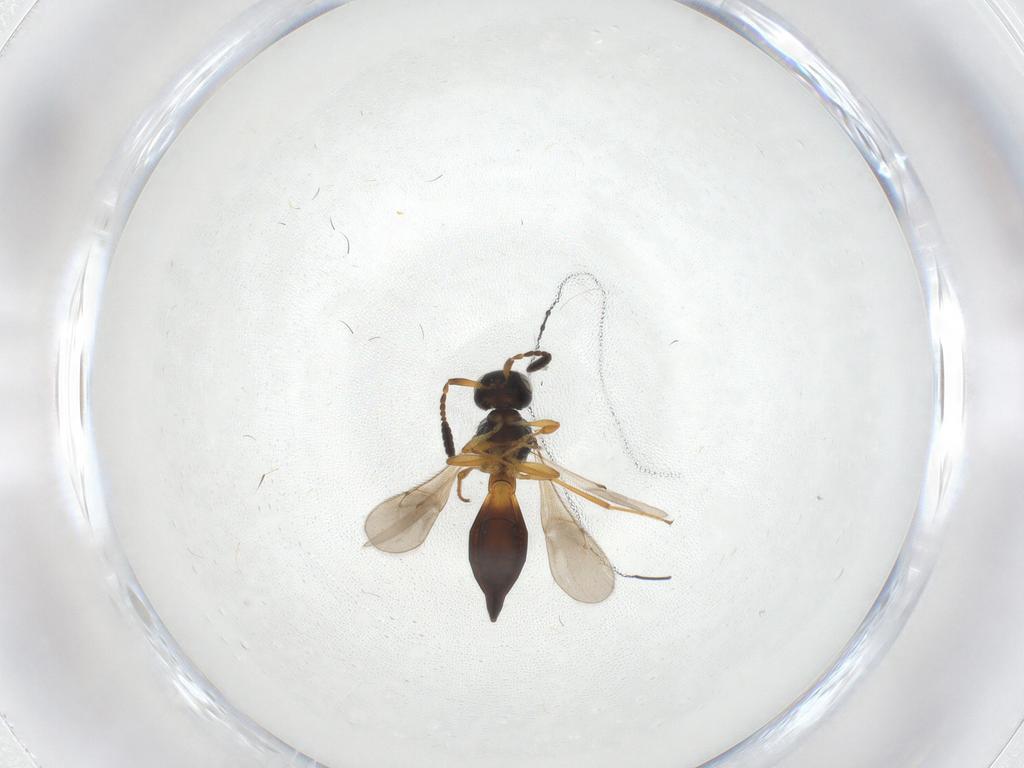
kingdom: Animalia
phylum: Arthropoda
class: Insecta
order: Hymenoptera
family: Scelionidae
